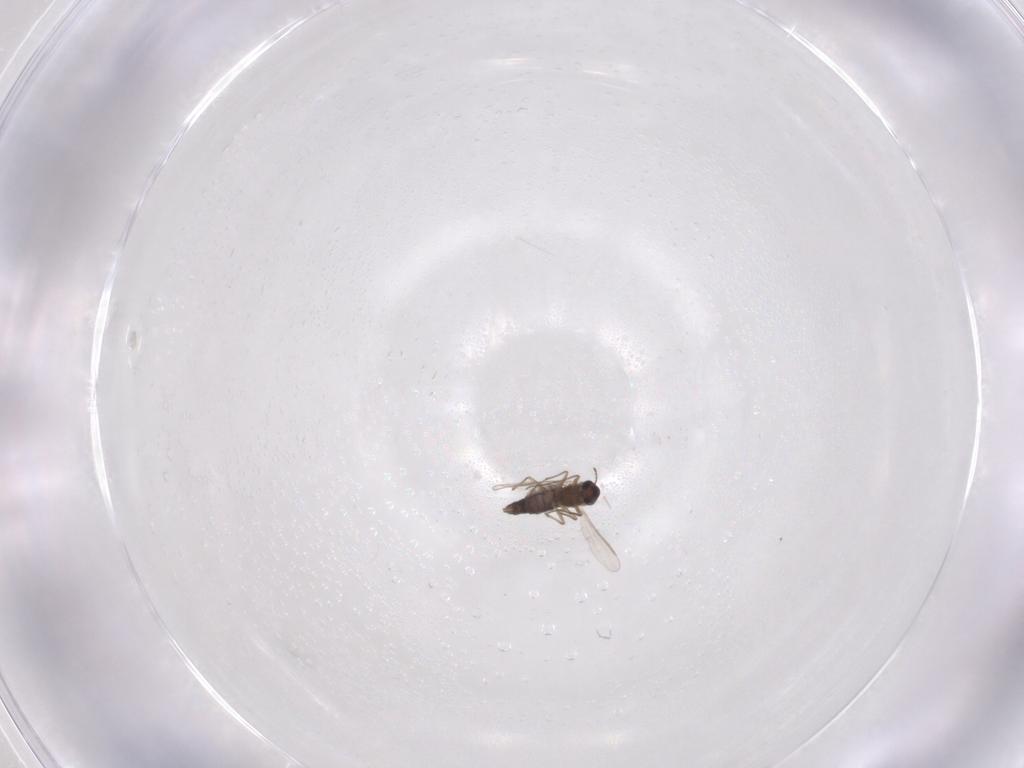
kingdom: Animalia
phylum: Arthropoda
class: Insecta
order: Diptera
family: Chironomidae
